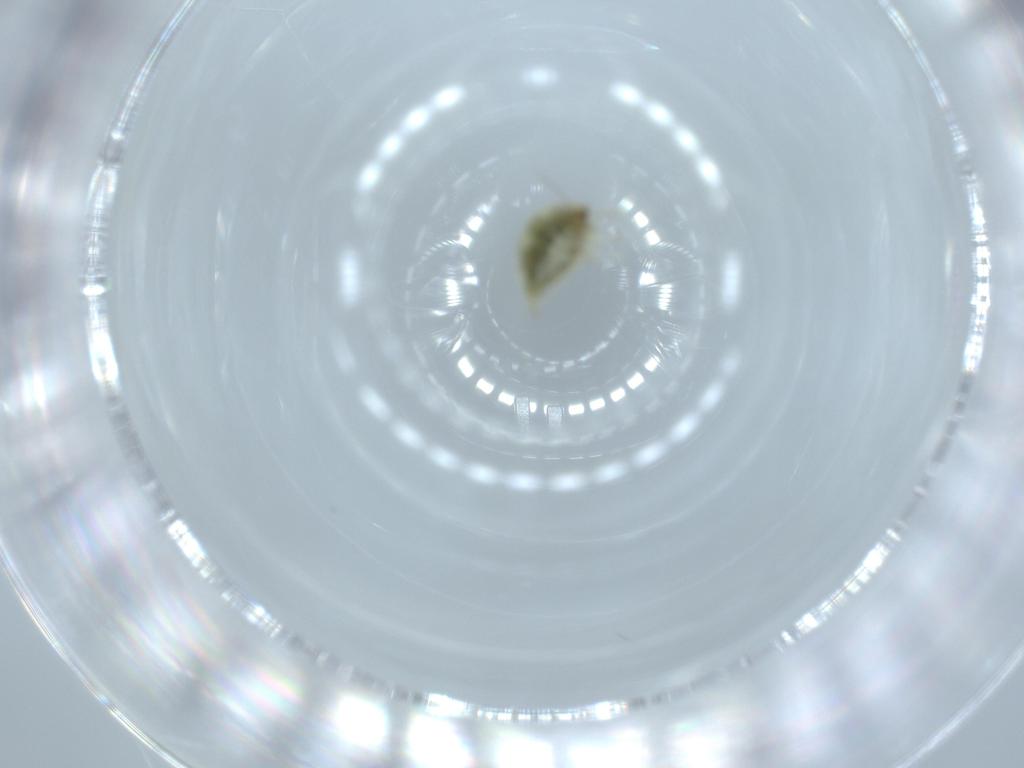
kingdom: Animalia
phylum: Arthropoda
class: Insecta
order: Neuroptera
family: Coniopterygidae
